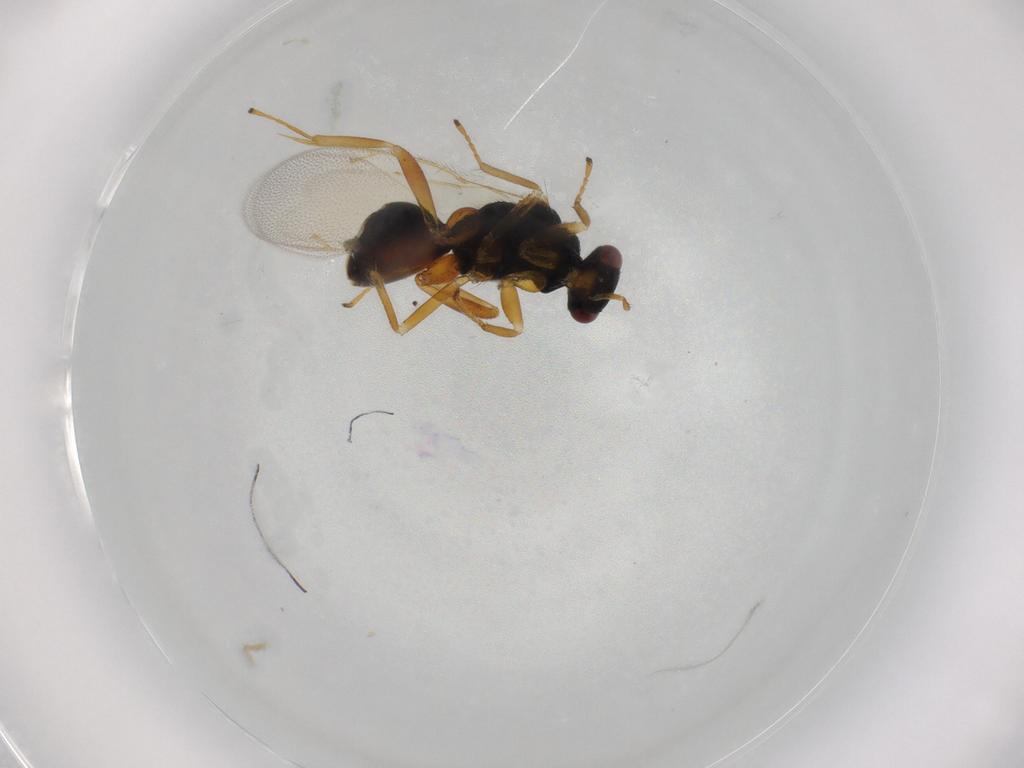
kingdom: Animalia
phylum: Arthropoda
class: Insecta
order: Hymenoptera
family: Eulophidae
